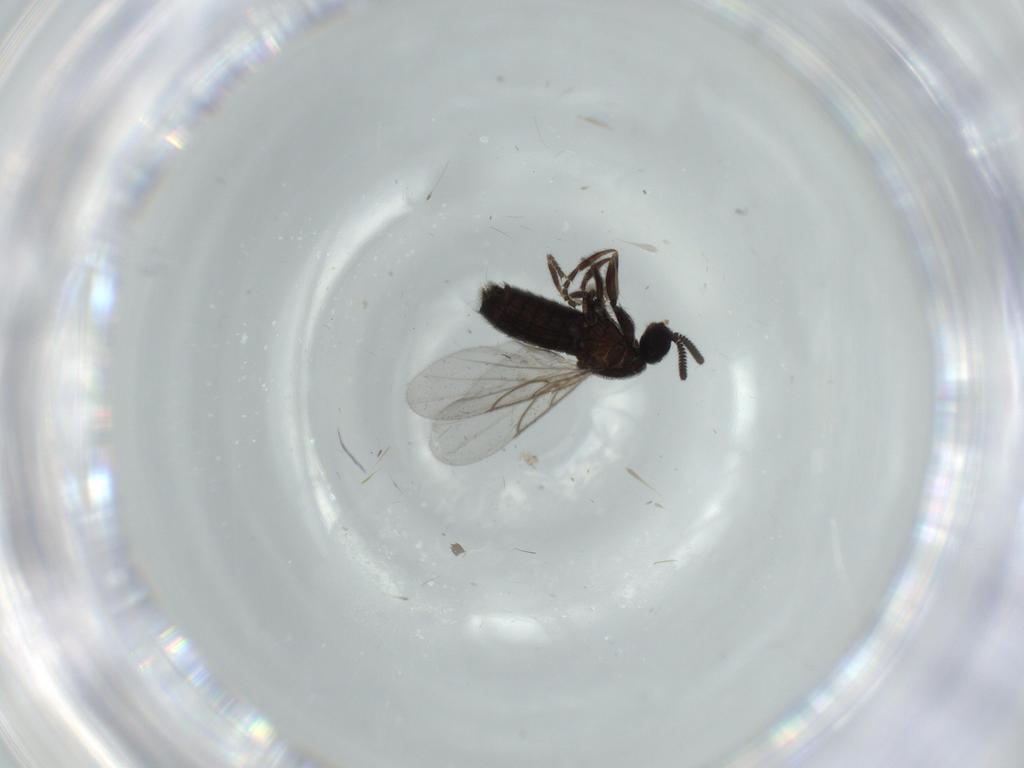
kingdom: Animalia
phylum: Arthropoda
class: Insecta
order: Diptera
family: Scatopsidae
